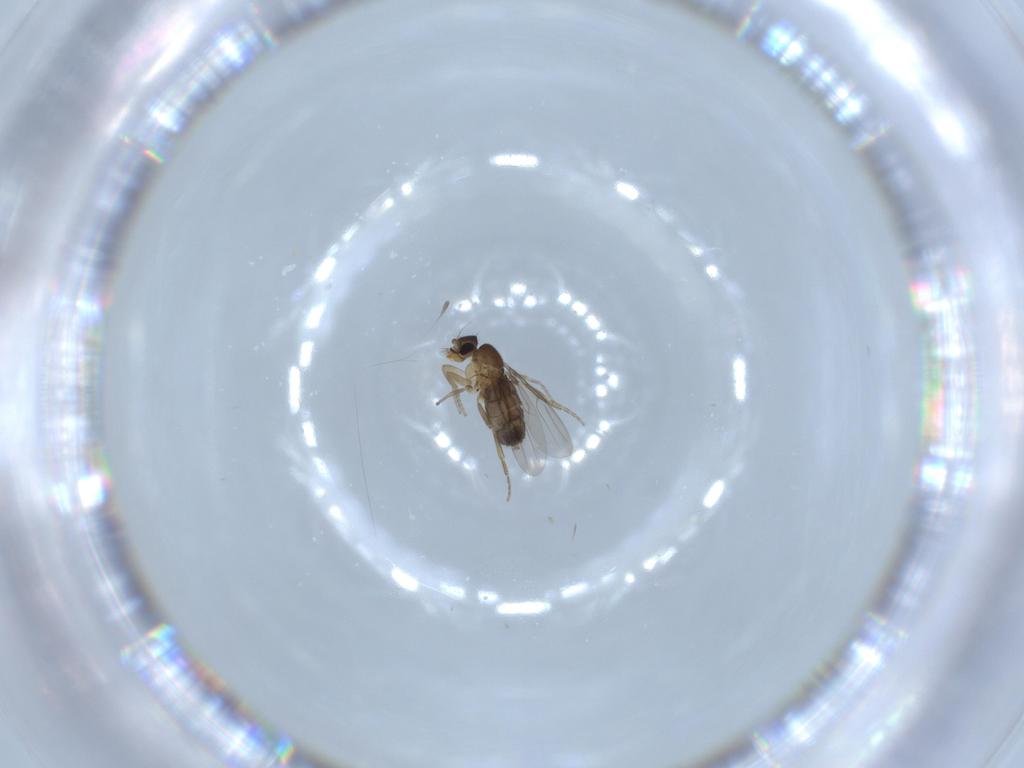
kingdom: Animalia
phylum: Arthropoda
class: Insecta
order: Diptera
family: Phoridae
